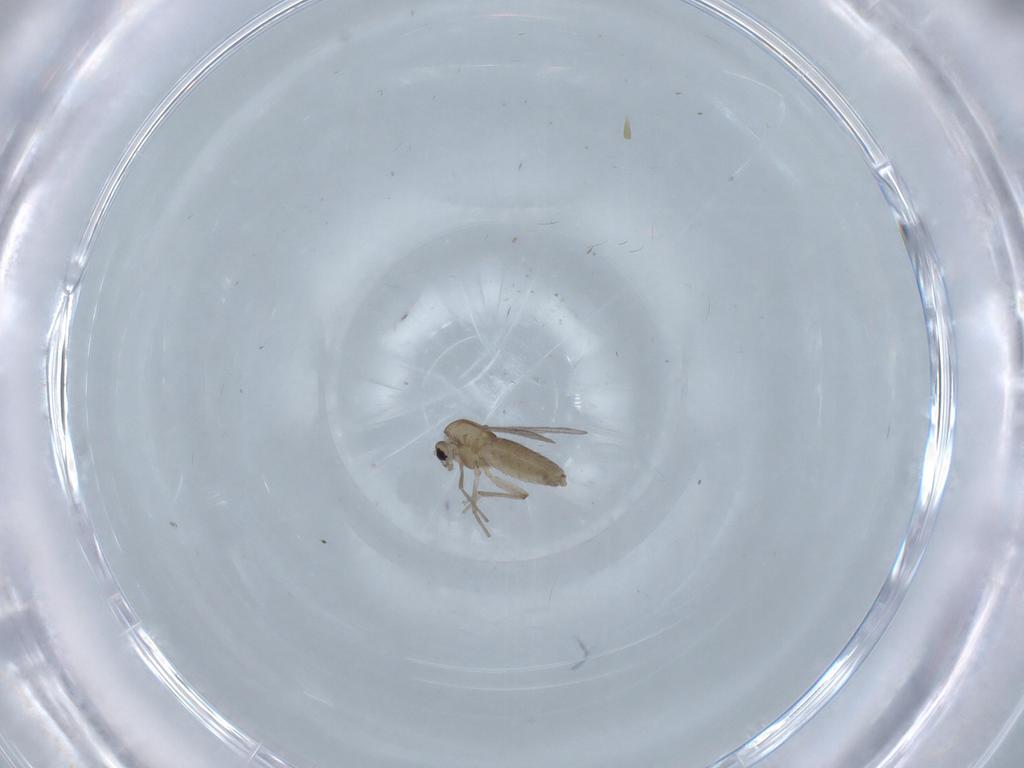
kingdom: Animalia
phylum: Arthropoda
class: Insecta
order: Diptera
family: Chironomidae
